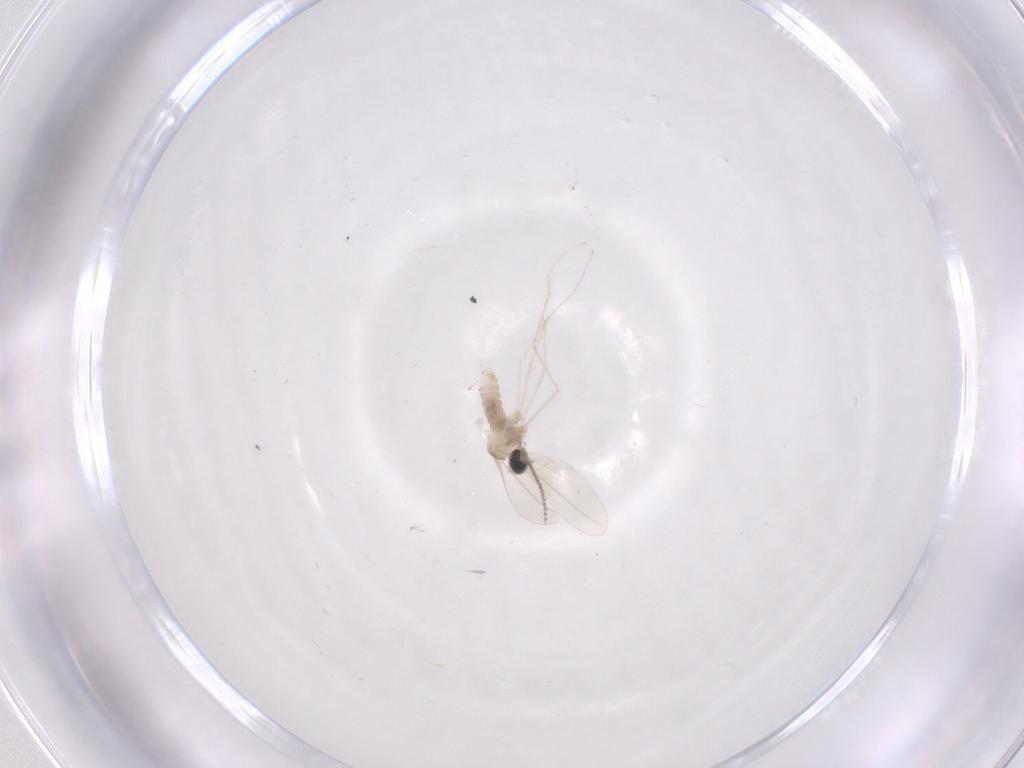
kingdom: Animalia
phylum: Arthropoda
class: Insecta
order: Diptera
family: Cecidomyiidae
